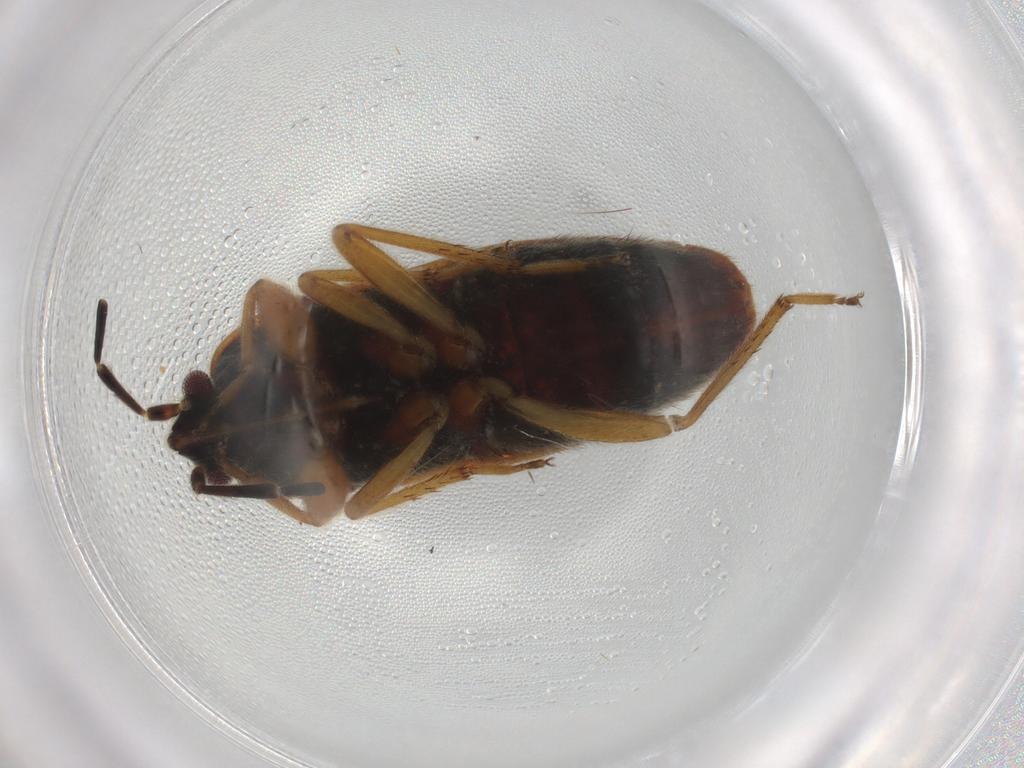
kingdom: Animalia
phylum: Arthropoda
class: Insecta
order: Hemiptera
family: Rhyparochromidae
